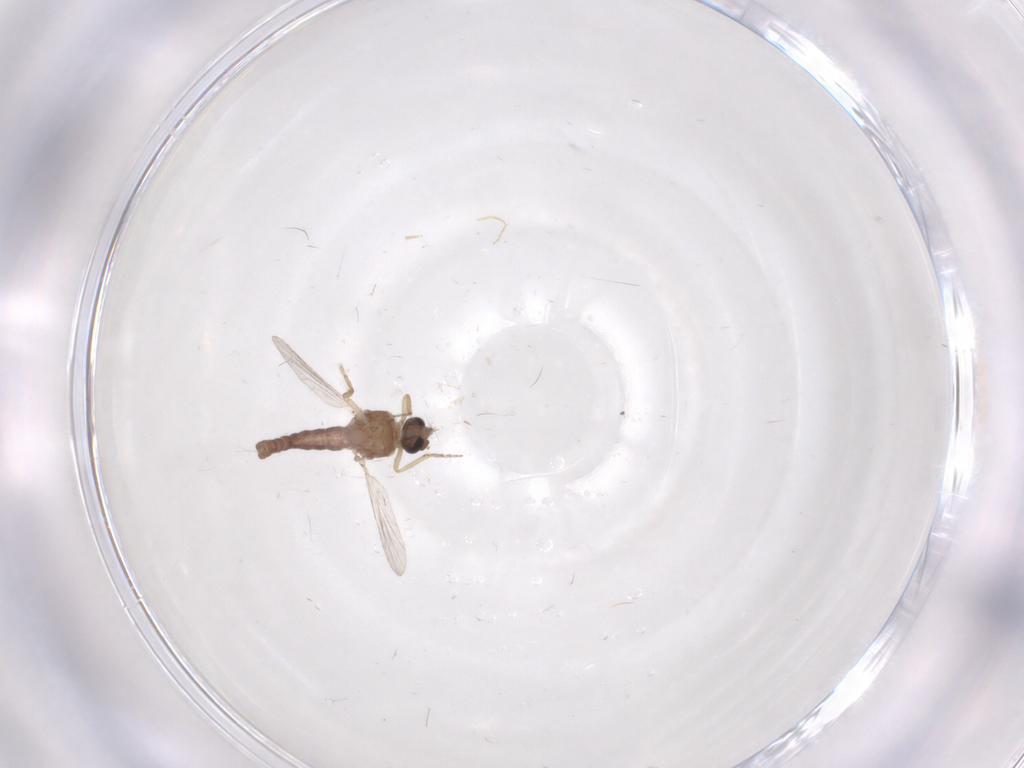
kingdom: Animalia
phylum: Arthropoda
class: Insecta
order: Diptera
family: Ceratopogonidae
